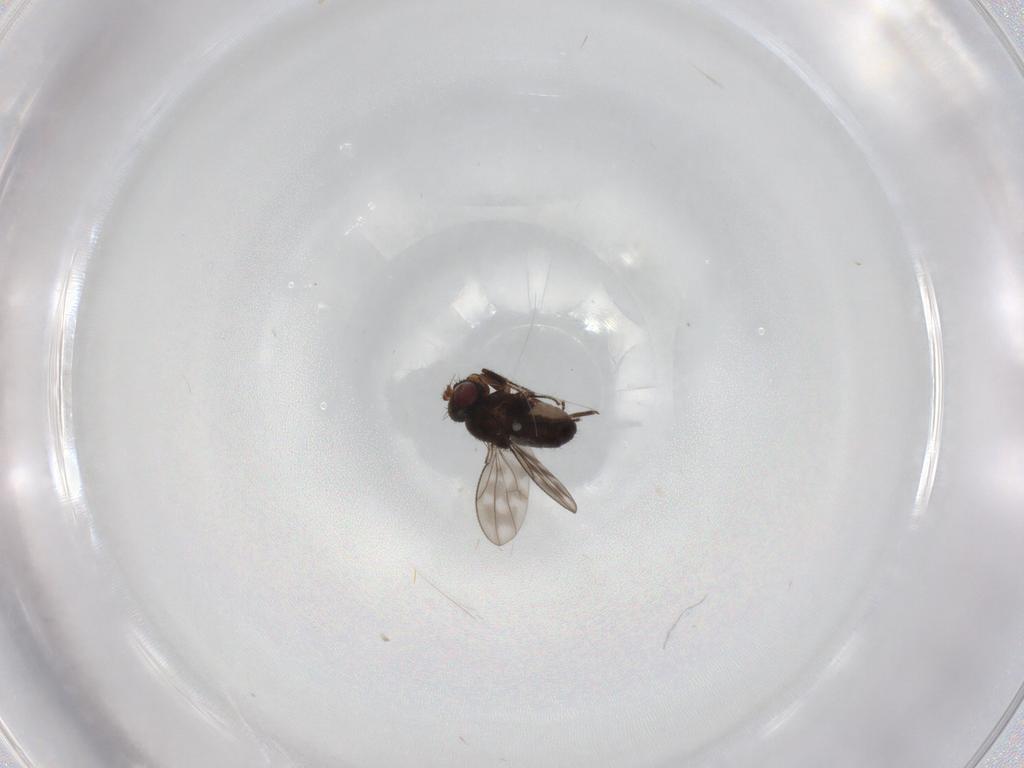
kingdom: Animalia
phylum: Arthropoda
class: Insecta
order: Diptera
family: Ephydridae
